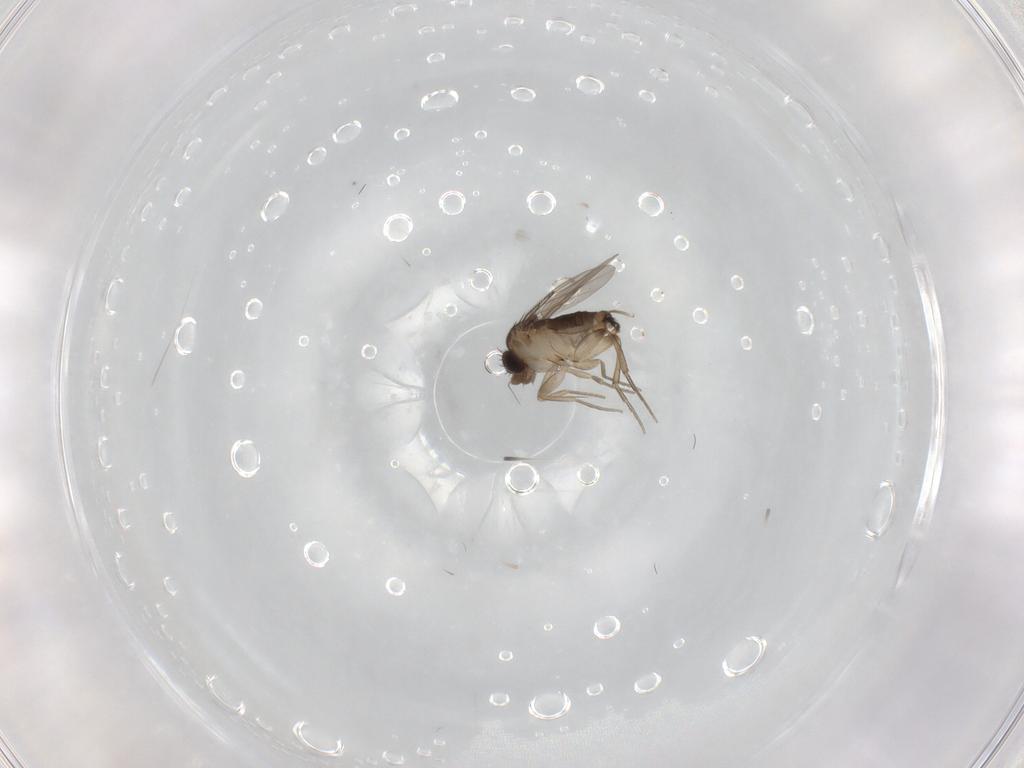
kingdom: Animalia
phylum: Arthropoda
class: Insecta
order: Diptera
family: Phoridae
